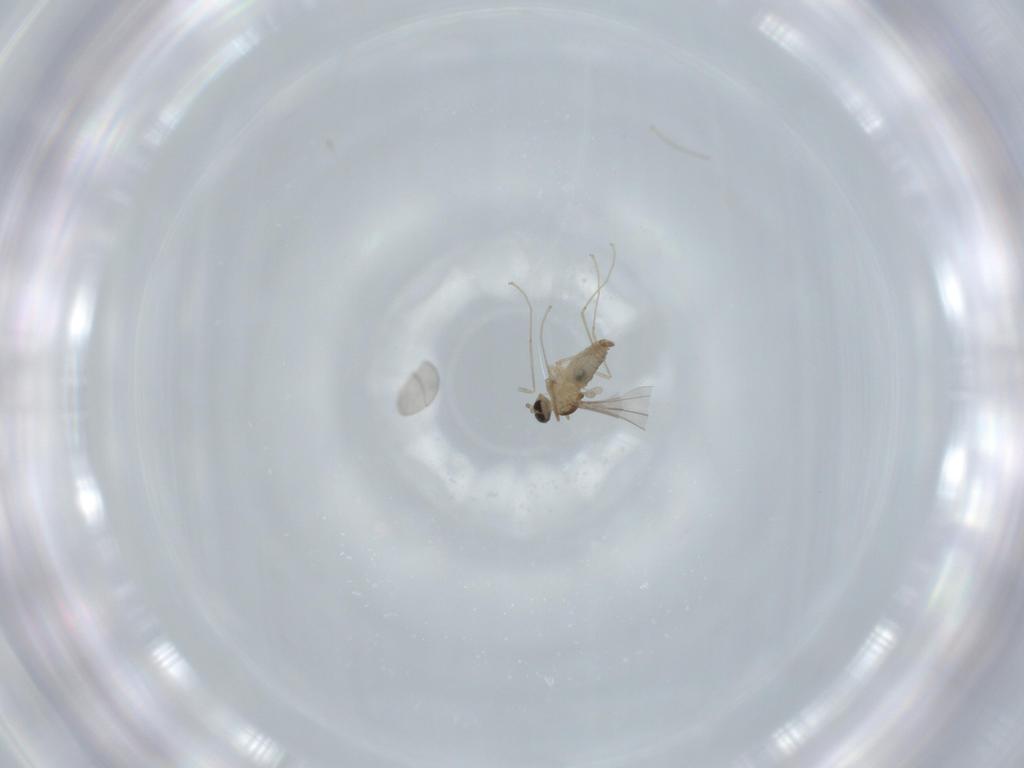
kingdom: Animalia
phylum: Arthropoda
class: Insecta
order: Diptera
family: Cecidomyiidae
